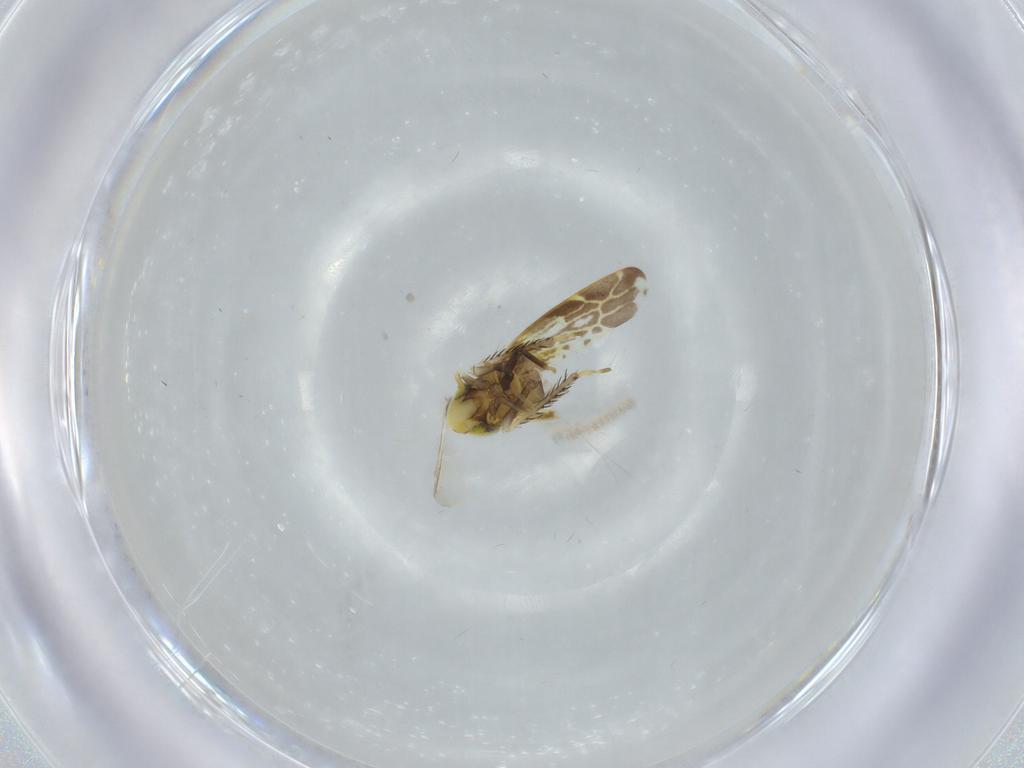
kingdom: Animalia
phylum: Arthropoda
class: Insecta
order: Hemiptera
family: Cicadellidae
